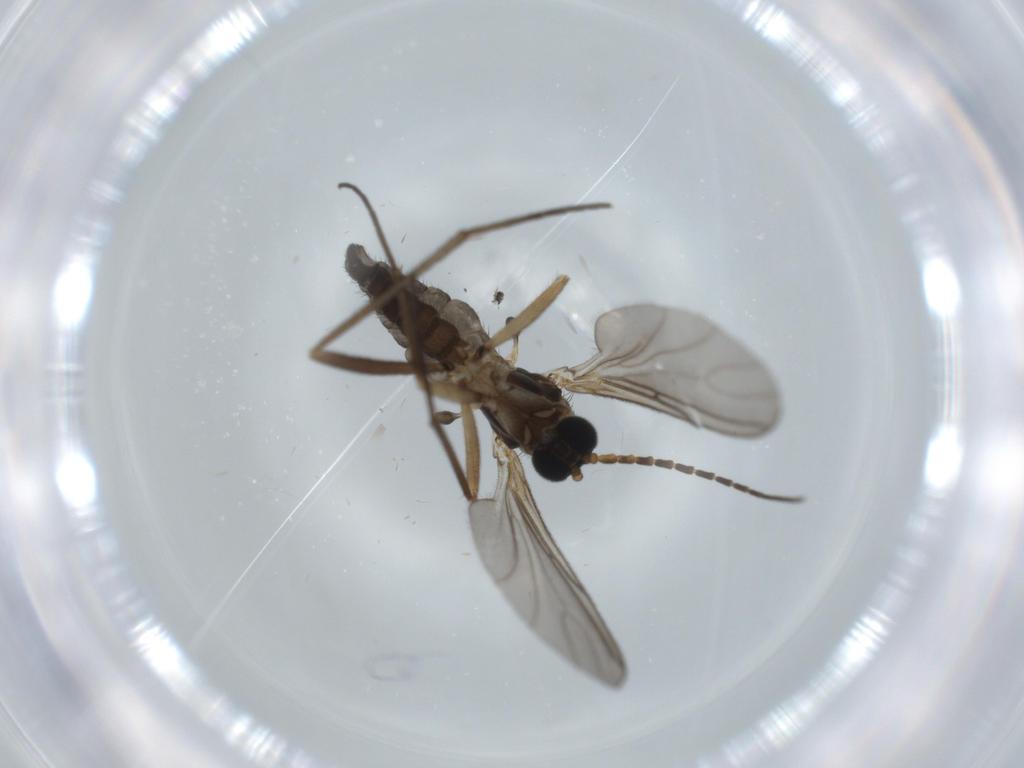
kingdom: Animalia
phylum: Arthropoda
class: Insecta
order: Diptera
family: Cecidomyiidae
